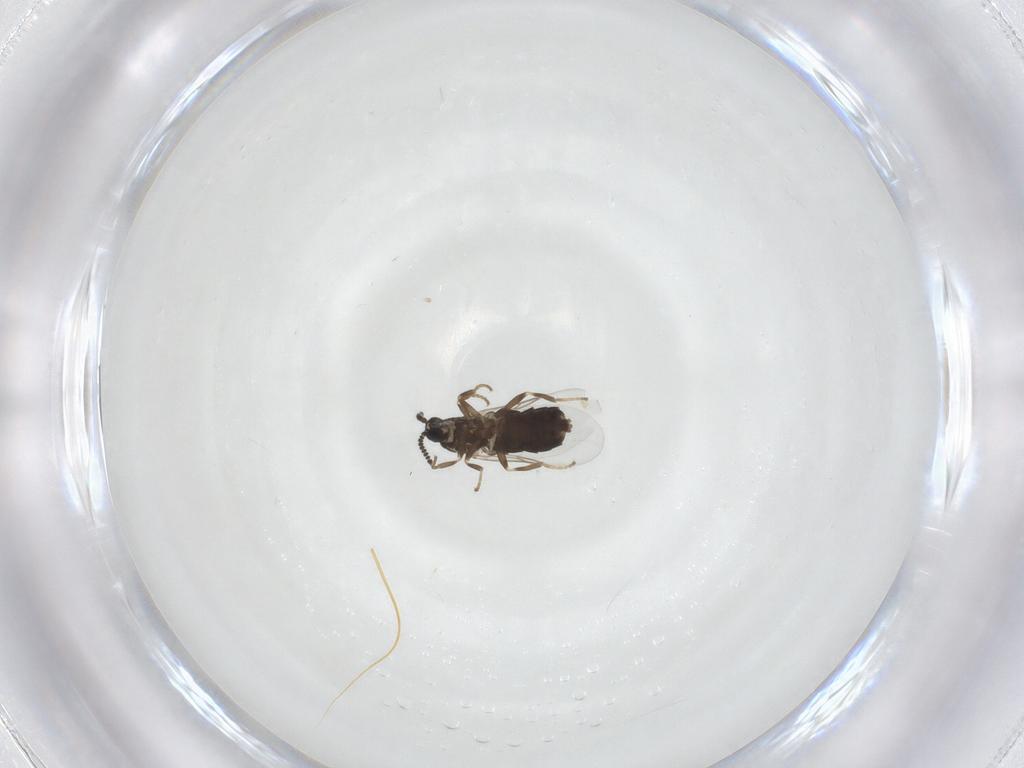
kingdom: Animalia
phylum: Arthropoda
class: Insecta
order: Diptera
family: Scatopsidae
